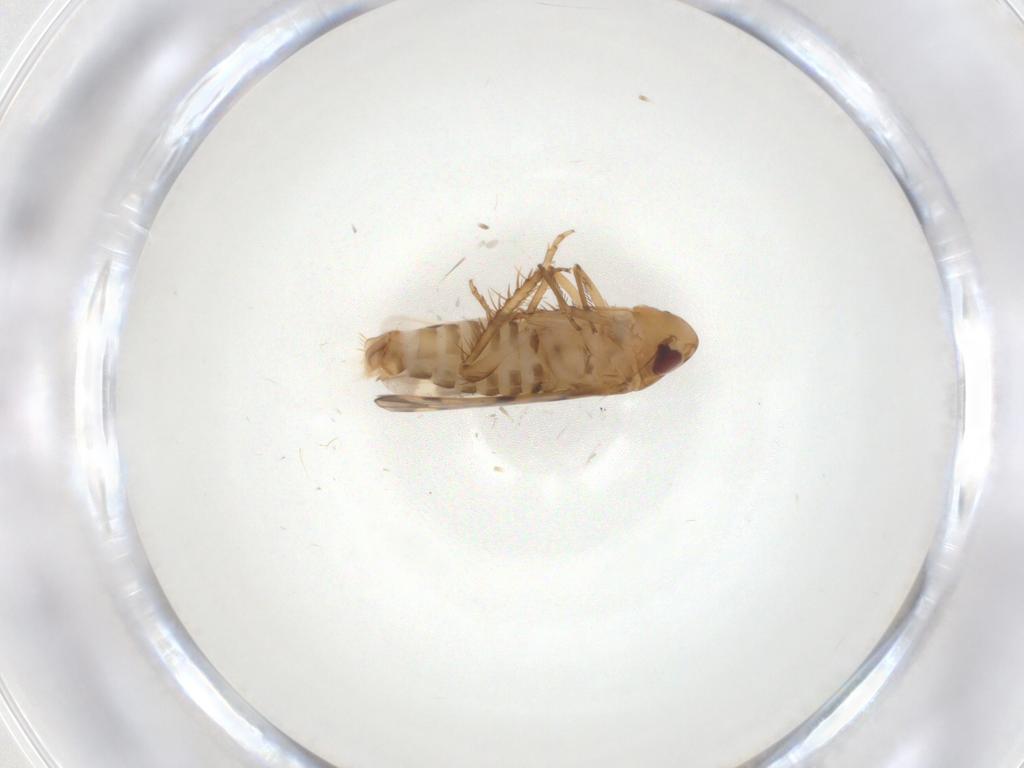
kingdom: Animalia
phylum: Arthropoda
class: Insecta
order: Hemiptera
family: Cicadellidae
